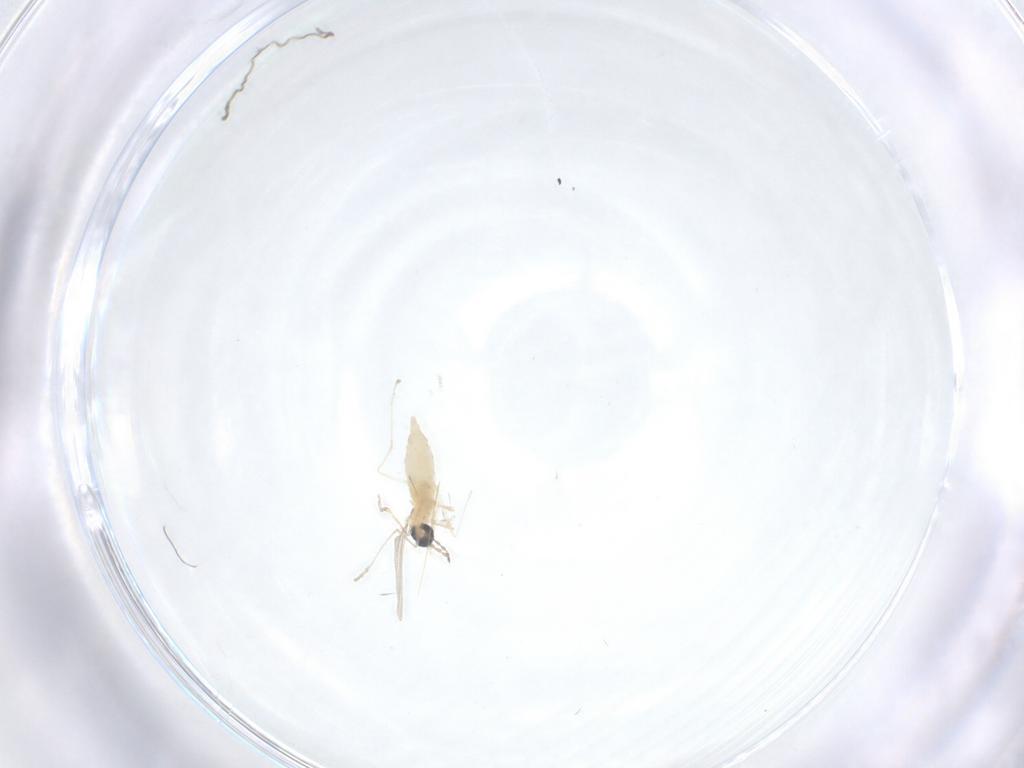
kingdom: Animalia
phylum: Arthropoda
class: Insecta
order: Diptera
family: Cecidomyiidae
